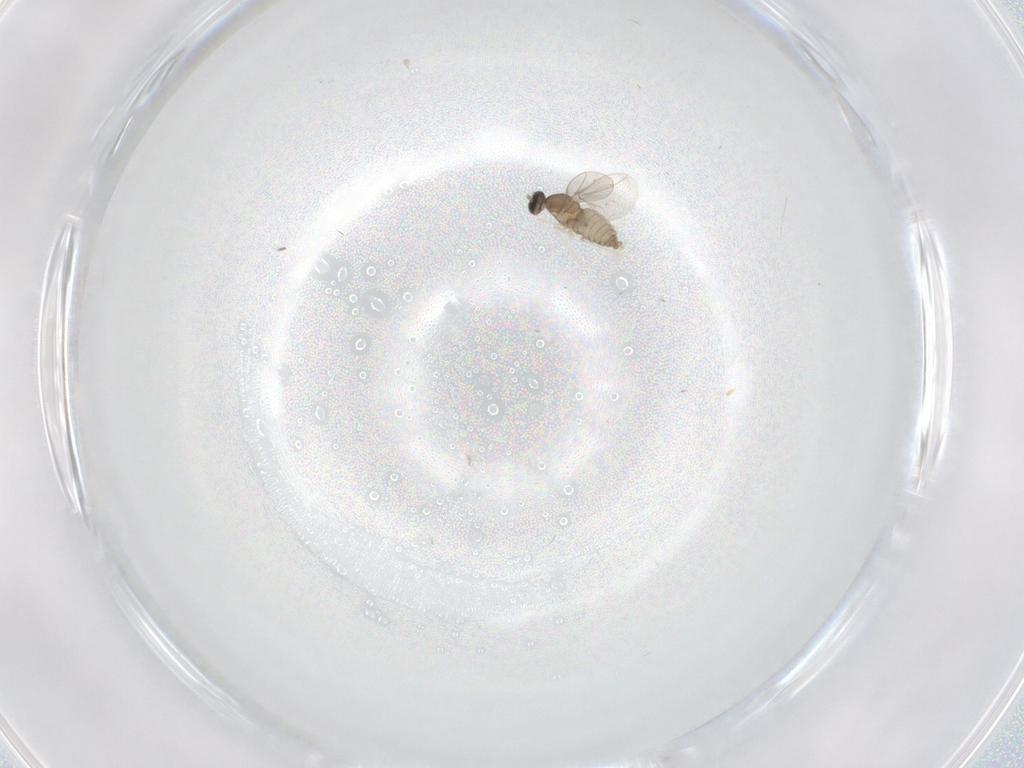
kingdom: Animalia
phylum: Arthropoda
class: Insecta
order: Diptera
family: Cecidomyiidae
